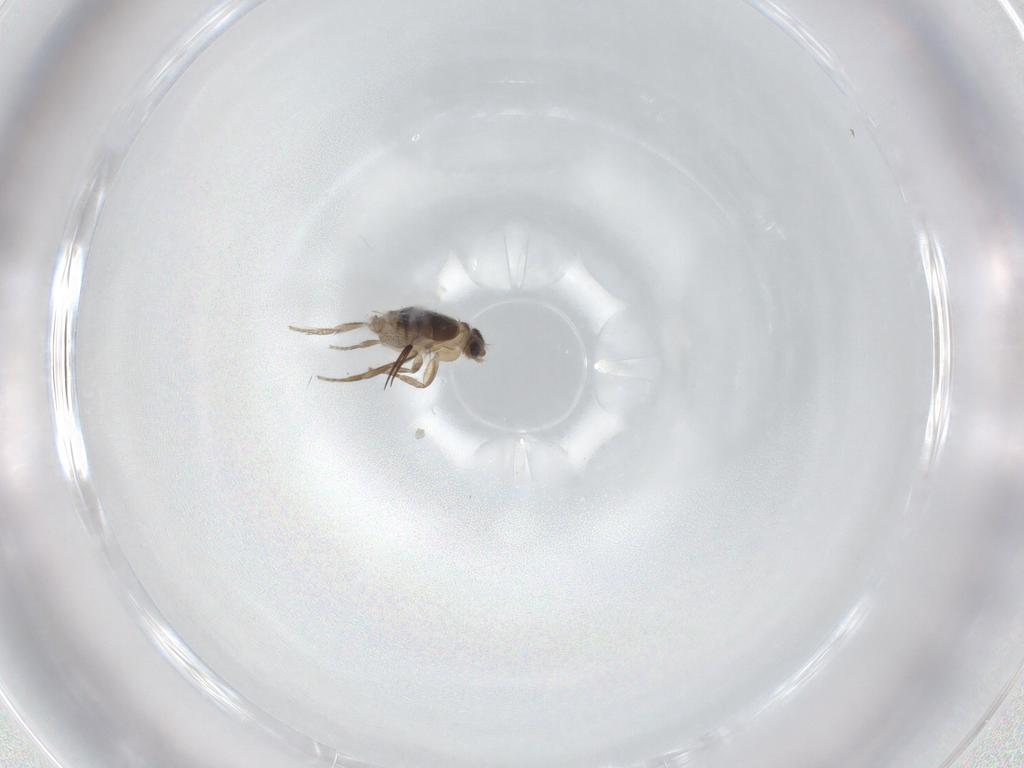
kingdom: Animalia
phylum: Arthropoda
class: Insecta
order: Diptera
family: Phoridae
